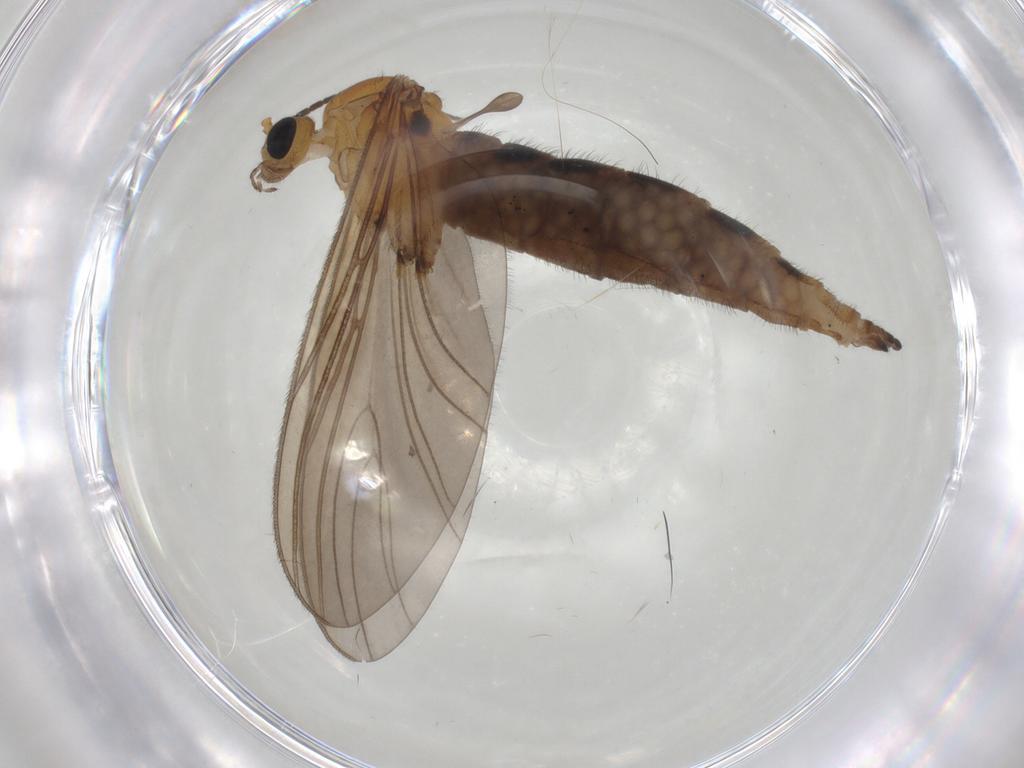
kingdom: Animalia
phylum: Arthropoda
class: Insecta
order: Diptera
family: Sciaridae
